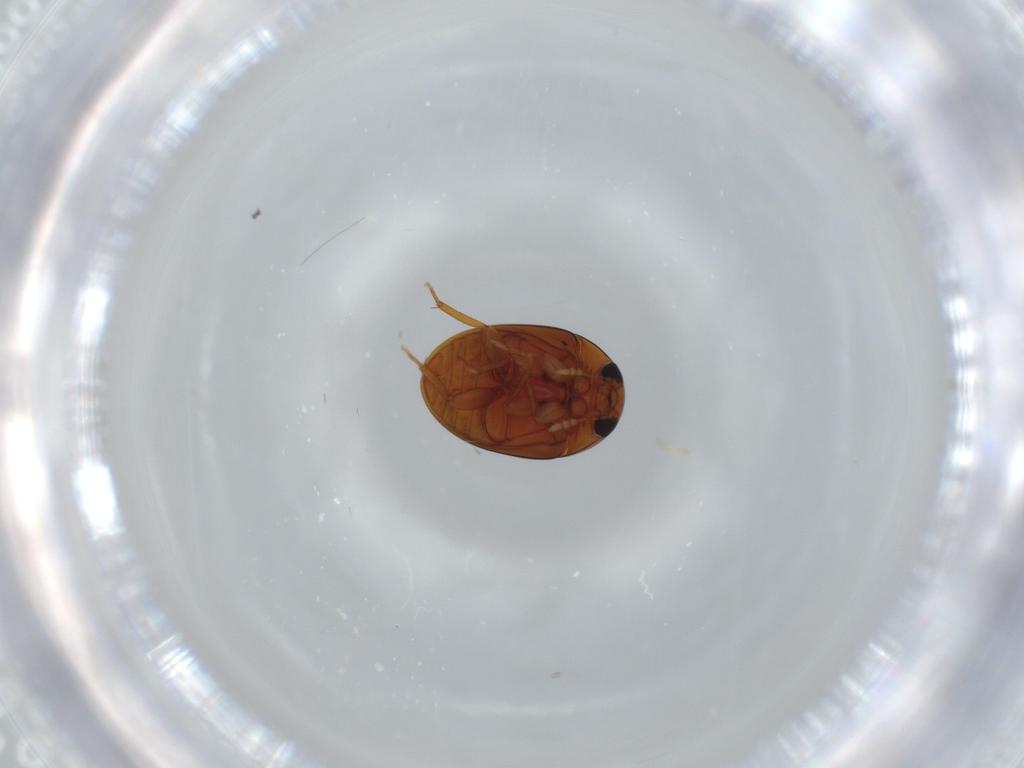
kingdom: Animalia
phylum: Arthropoda
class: Insecta
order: Coleoptera
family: Phalacridae
